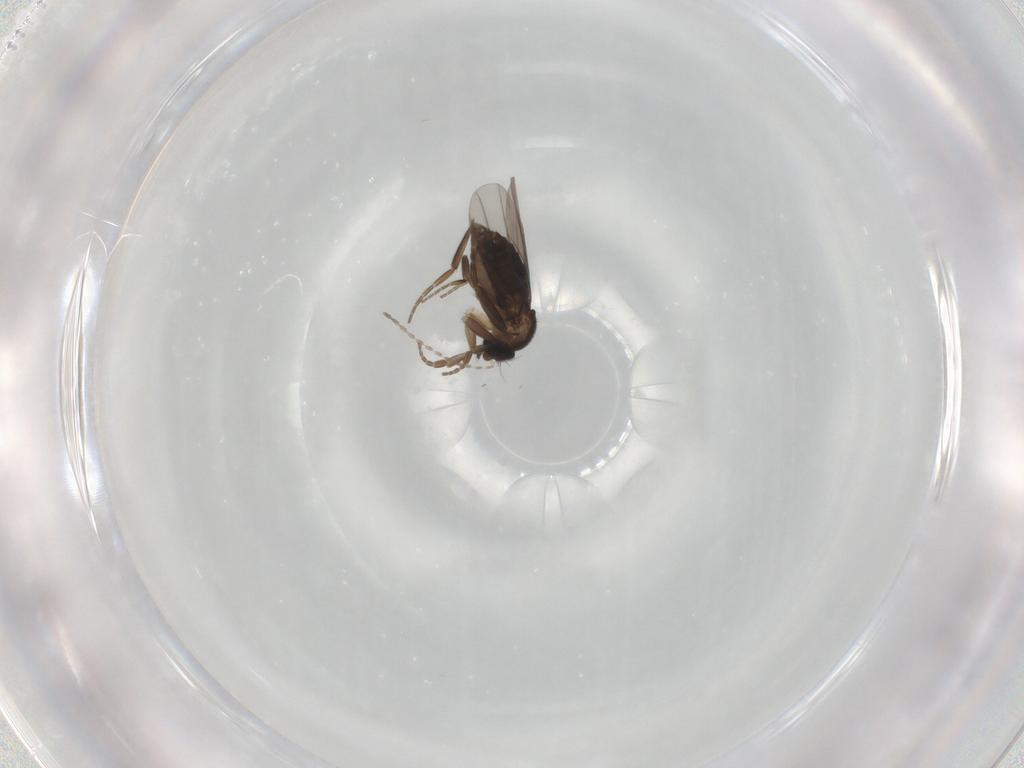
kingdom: Animalia
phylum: Arthropoda
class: Insecta
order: Diptera
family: Phoridae
